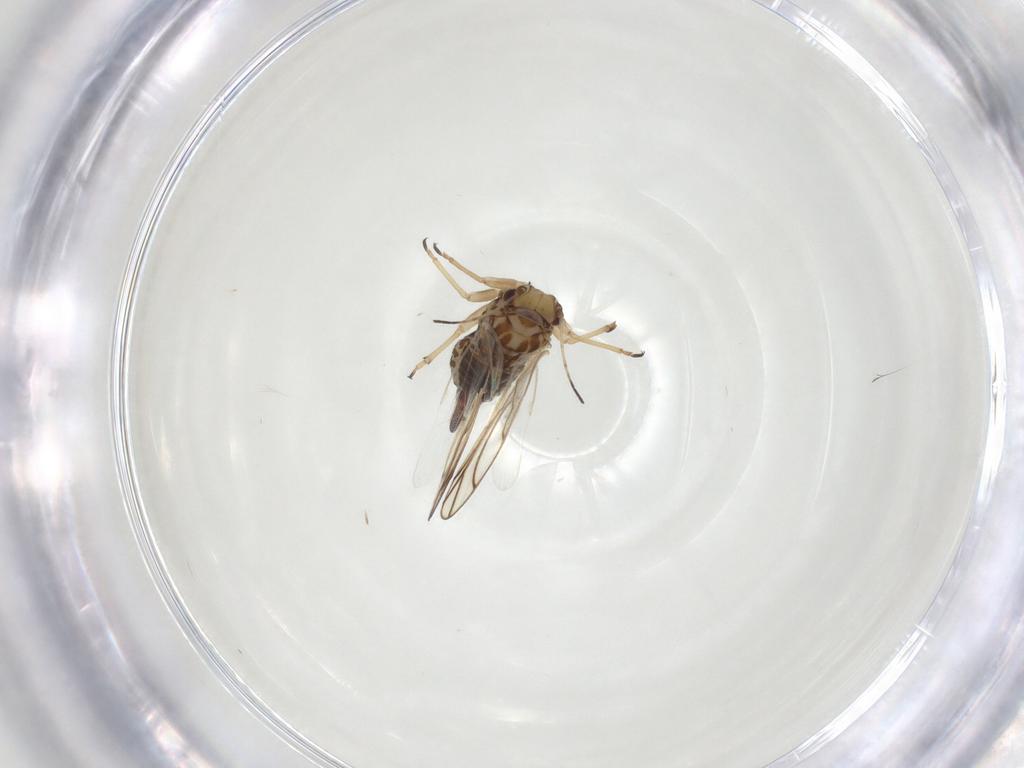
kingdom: Animalia
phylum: Arthropoda
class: Insecta
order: Hemiptera
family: Psylloidea_incertae_sedis
